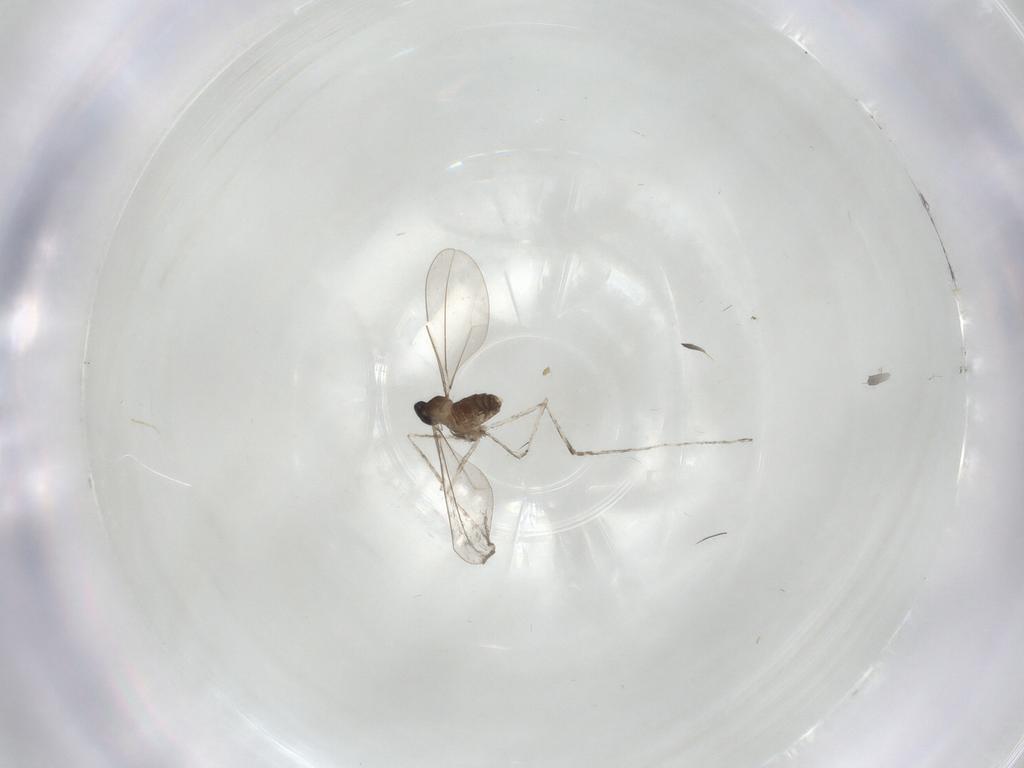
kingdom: Animalia
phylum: Arthropoda
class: Insecta
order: Diptera
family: Cecidomyiidae
